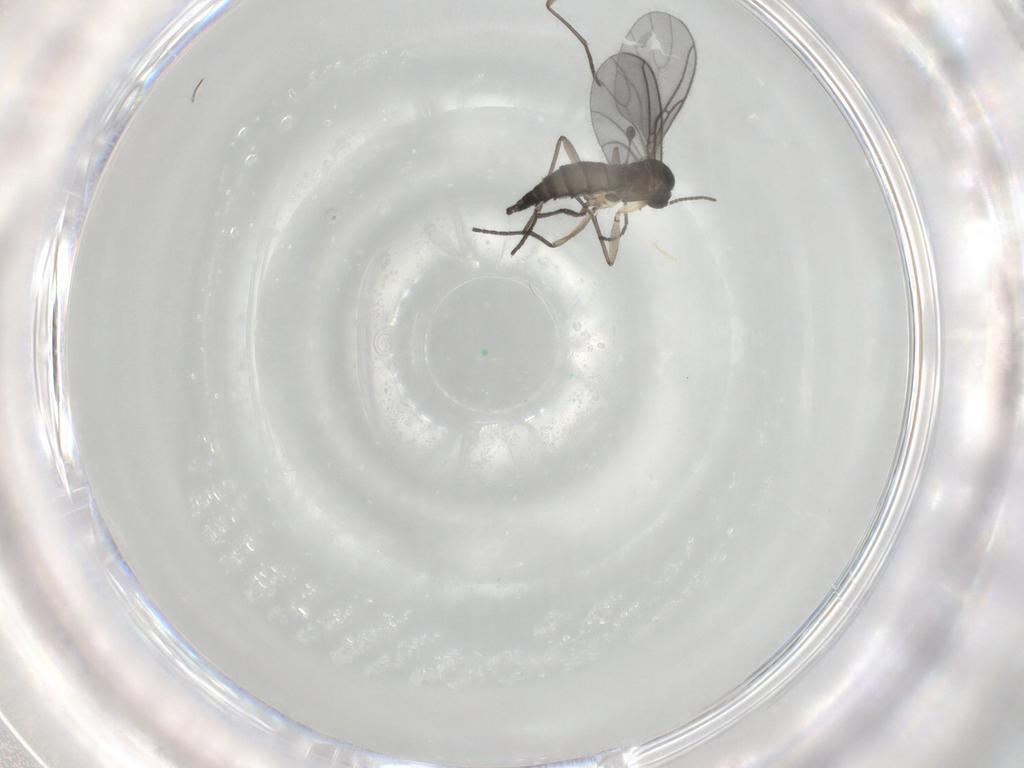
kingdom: Animalia
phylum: Arthropoda
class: Insecta
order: Diptera
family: Sciaridae
